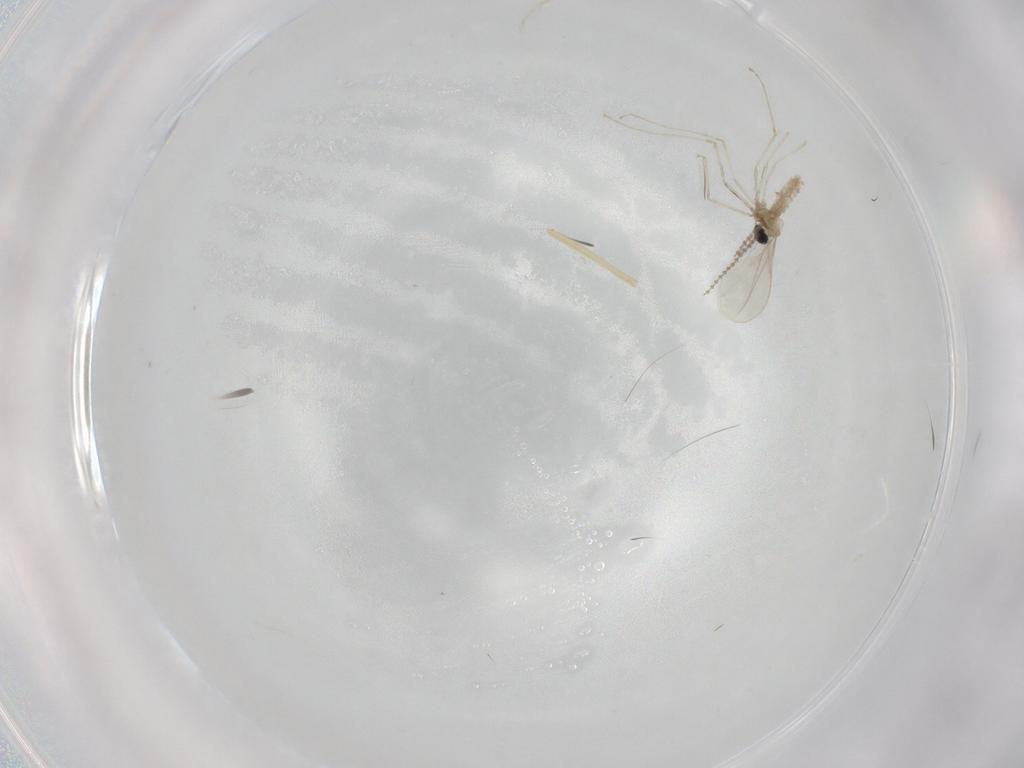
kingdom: Animalia
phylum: Arthropoda
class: Insecta
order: Diptera
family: Cecidomyiidae
